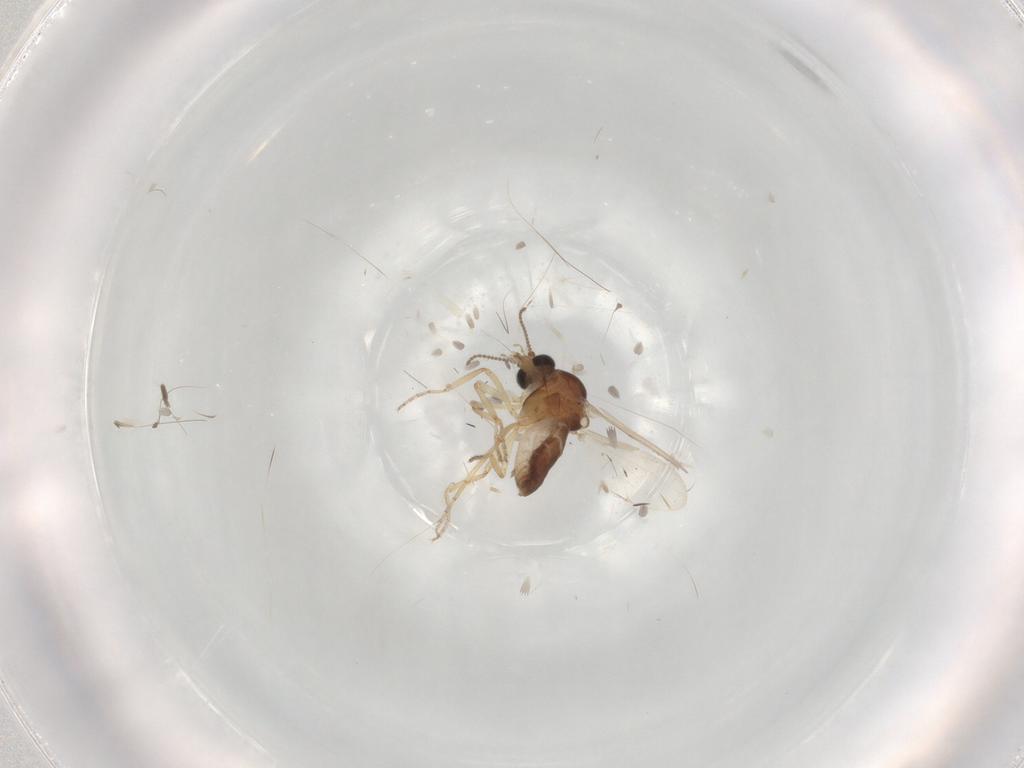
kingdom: Animalia
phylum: Arthropoda
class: Insecta
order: Diptera
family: Ceratopogonidae
